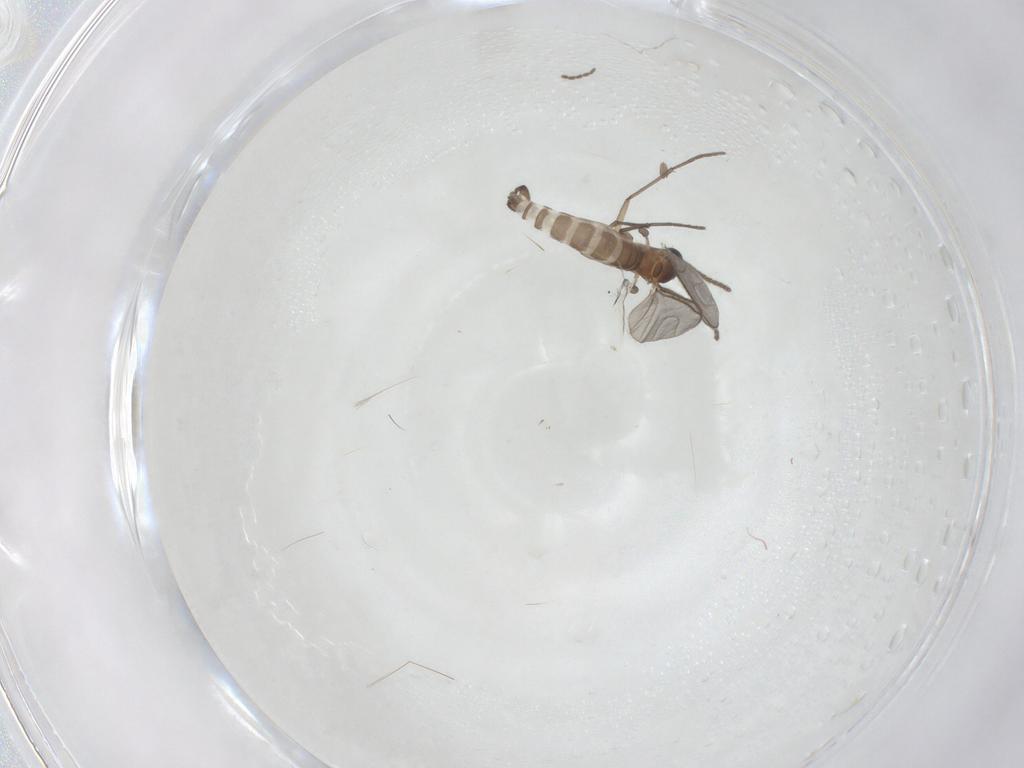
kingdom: Animalia
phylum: Arthropoda
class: Insecta
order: Diptera
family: Sciaridae
